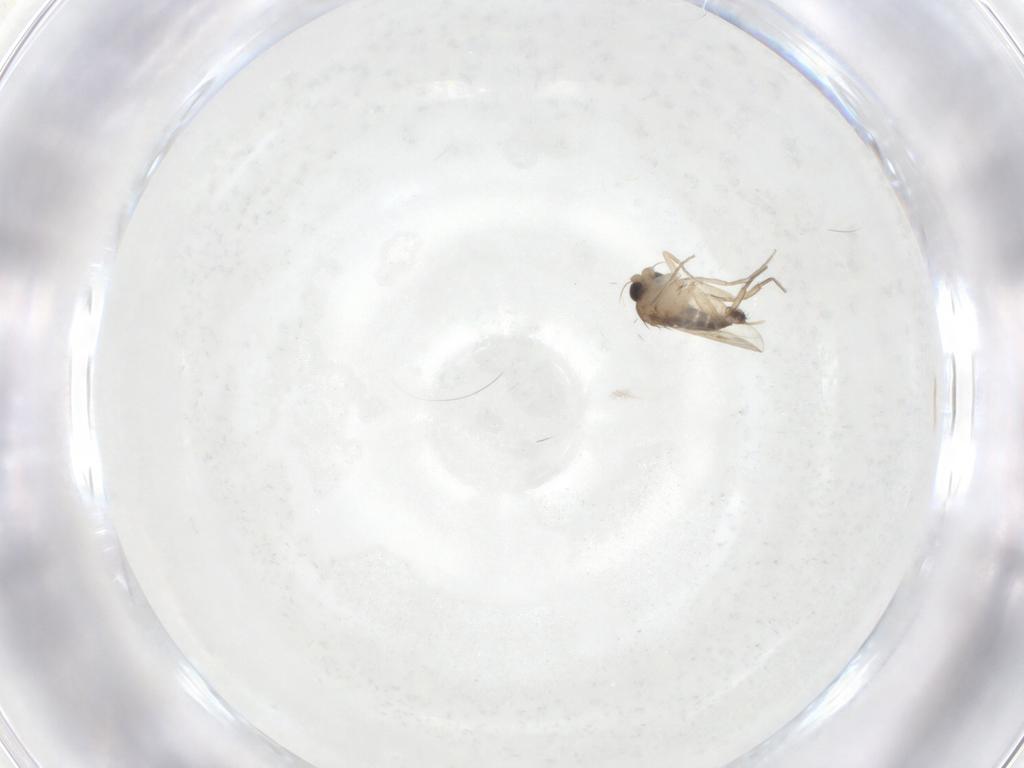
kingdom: Animalia
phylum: Arthropoda
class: Insecta
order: Diptera
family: Phoridae
